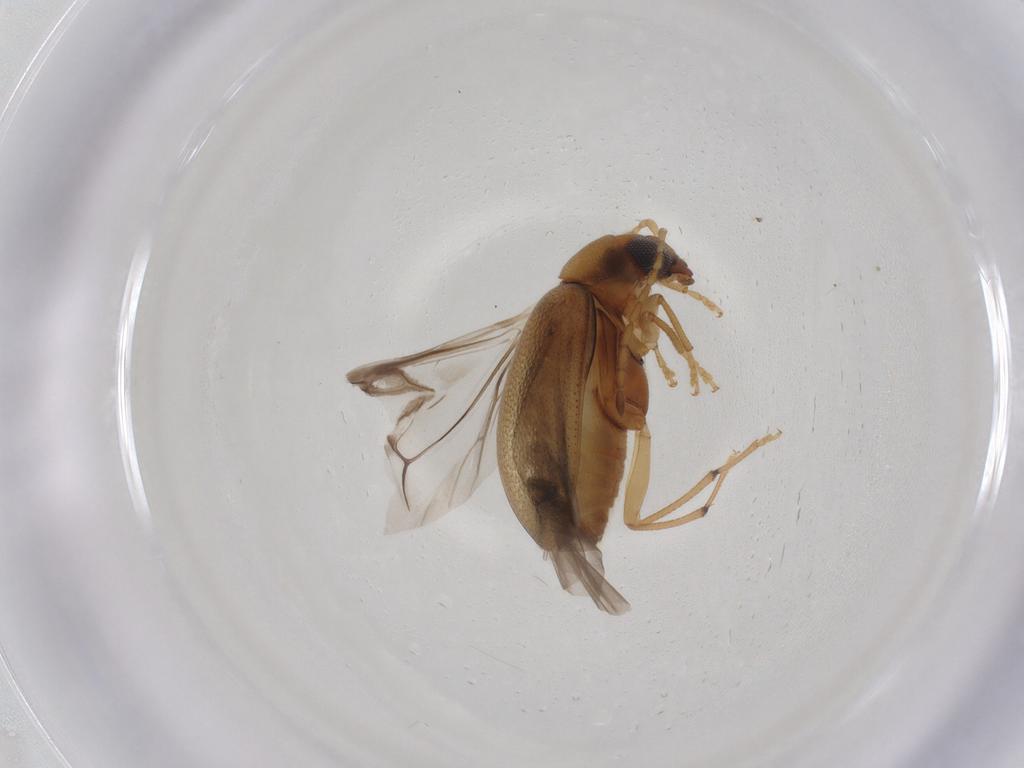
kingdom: Animalia
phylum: Arthropoda
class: Insecta
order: Coleoptera
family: Chrysomelidae
